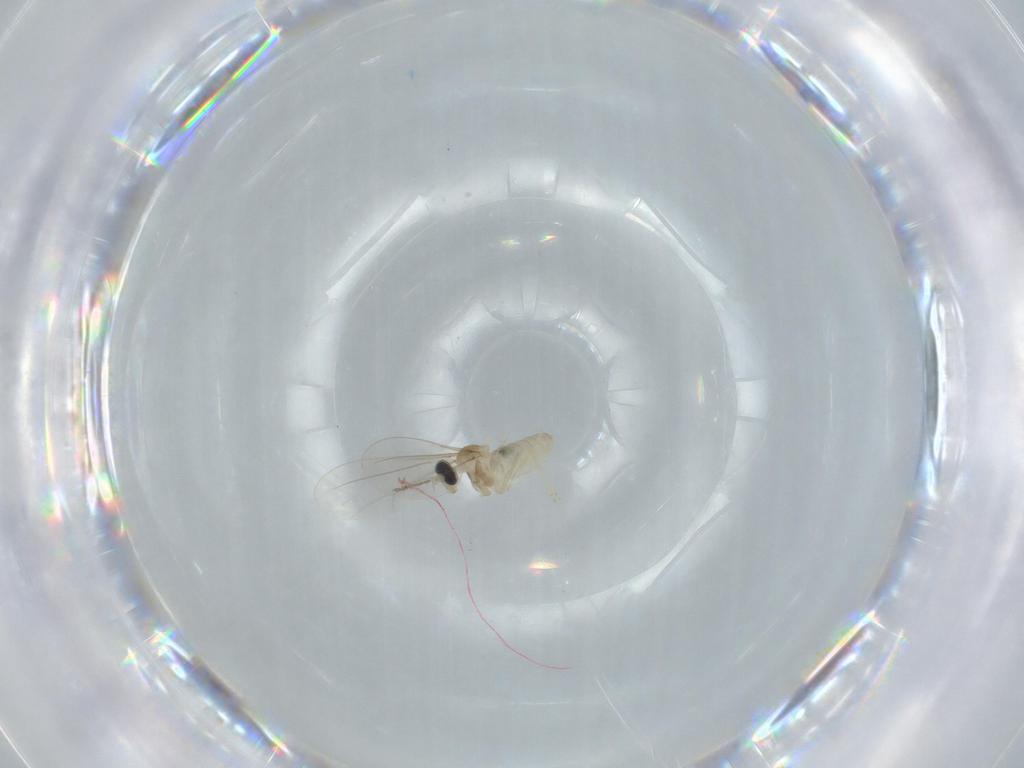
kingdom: Animalia
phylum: Arthropoda
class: Insecta
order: Diptera
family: Cecidomyiidae
